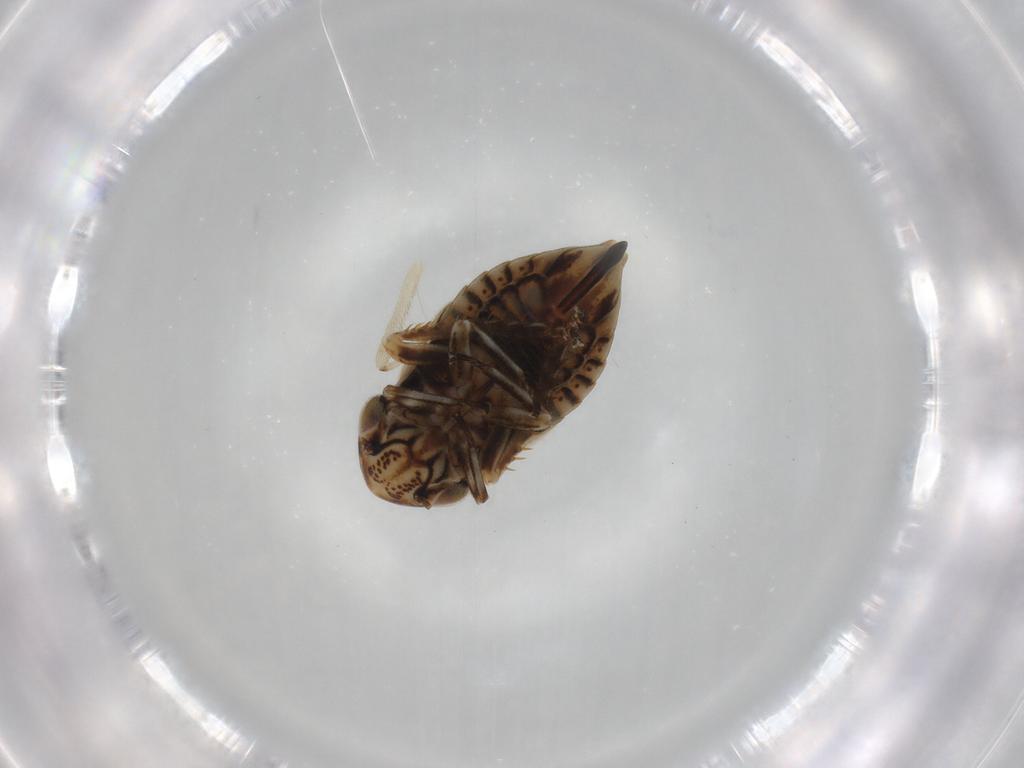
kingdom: Animalia
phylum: Arthropoda
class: Insecta
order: Hemiptera
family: Cicadellidae
